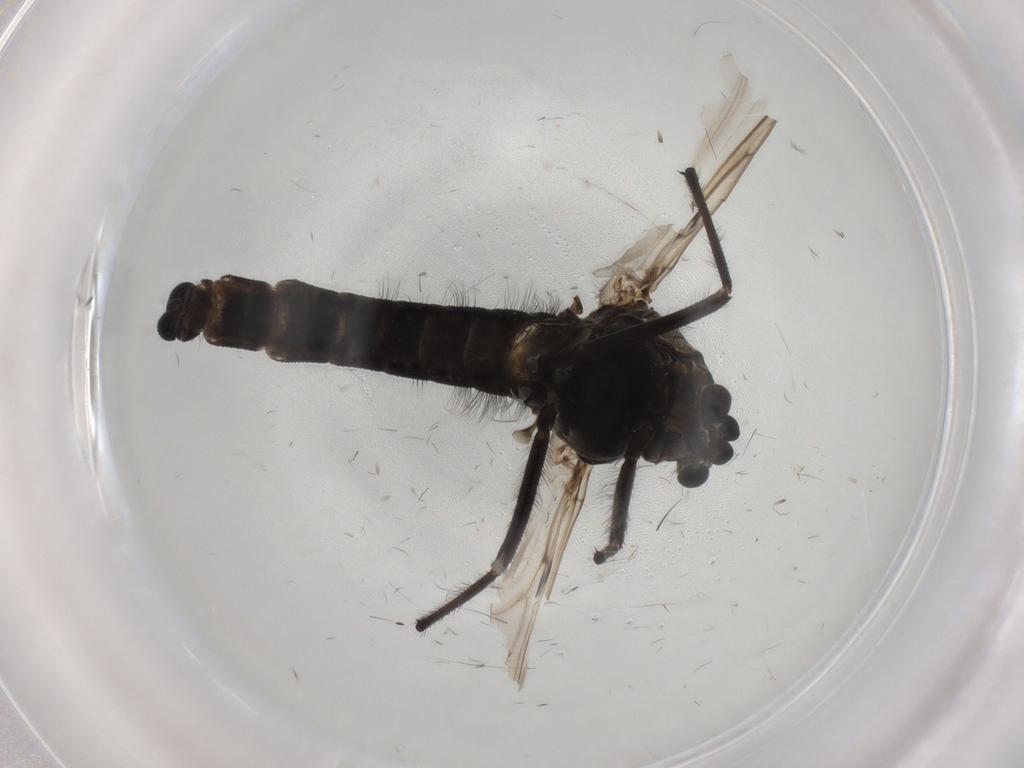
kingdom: Animalia
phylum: Arthropoda
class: Insecta
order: Diptera
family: Chironomidae
